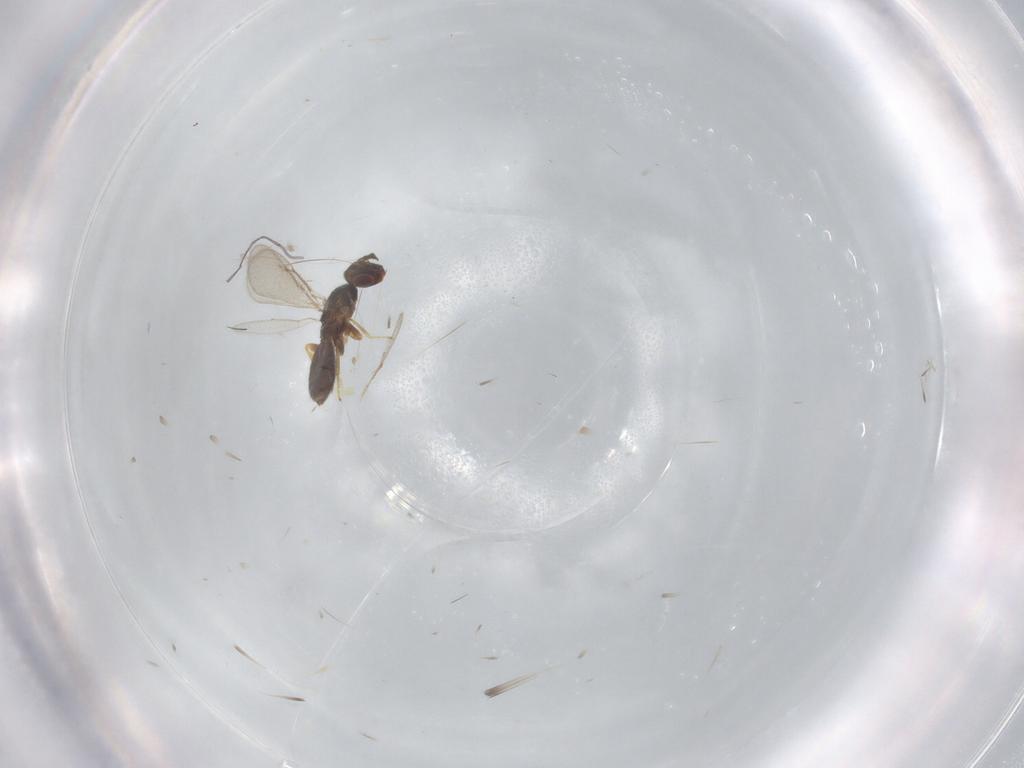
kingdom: Animalia
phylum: Arthropoda
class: Insecta
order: Hymenoptera
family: Eulophidae
